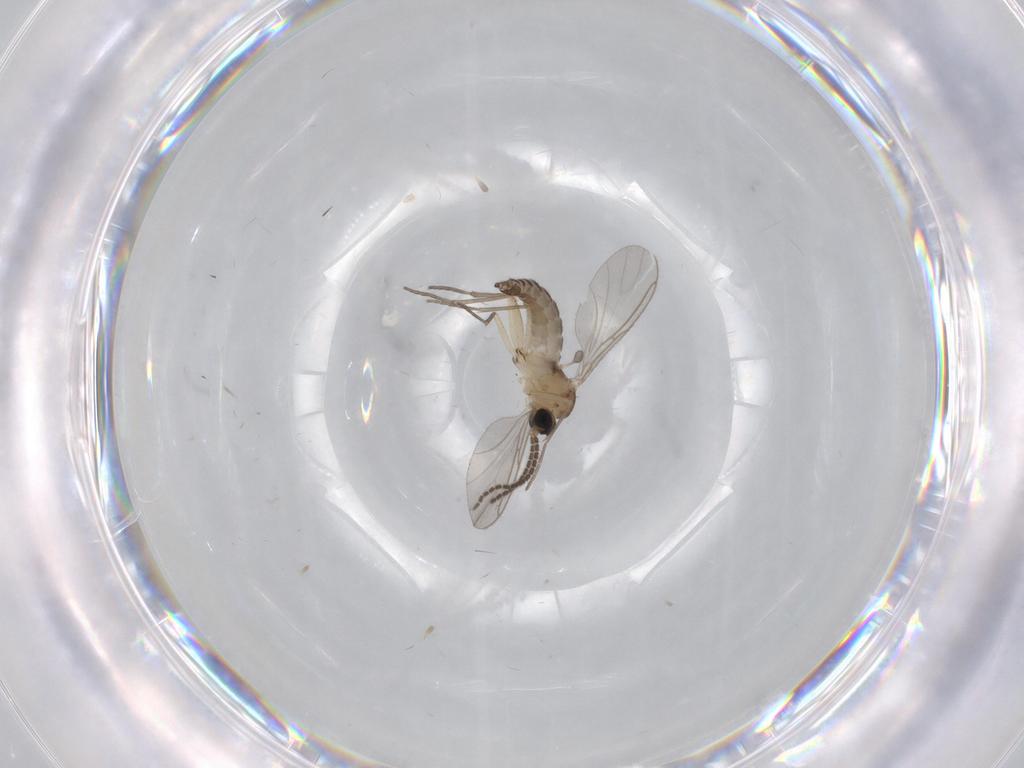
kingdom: Animalia
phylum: Arthropoda
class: Insecta
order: Diptera
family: Sciaridae
